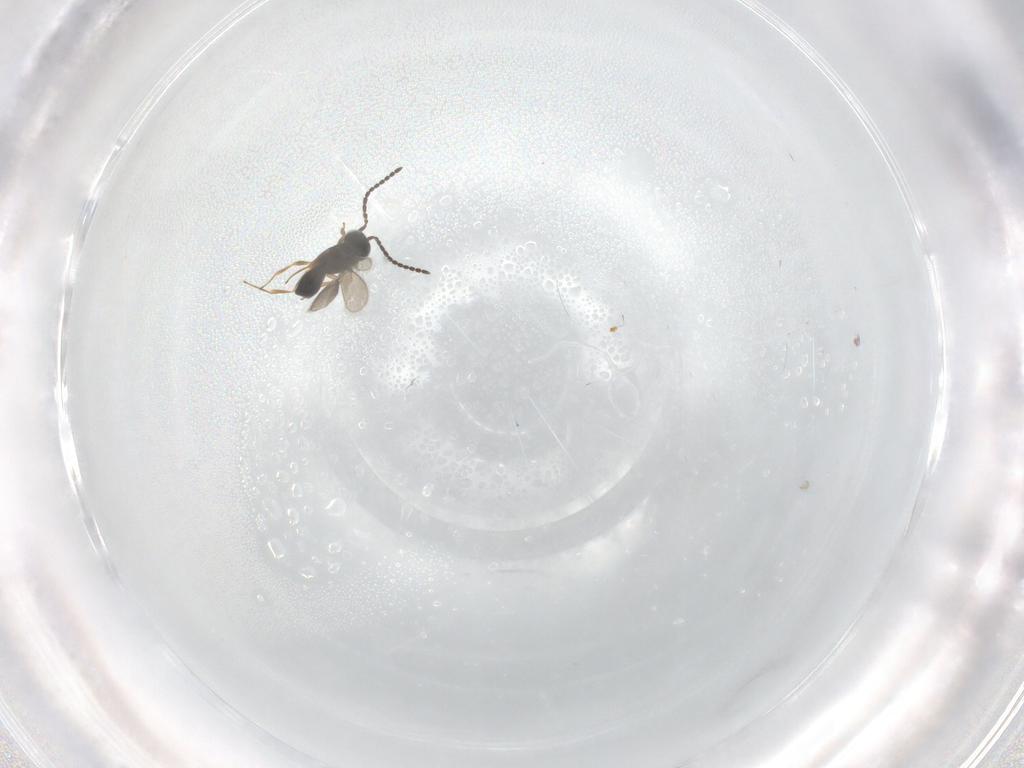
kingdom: Animalia
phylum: Arthropoda
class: Insecta
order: Hymenoptera
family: Scelionidae
